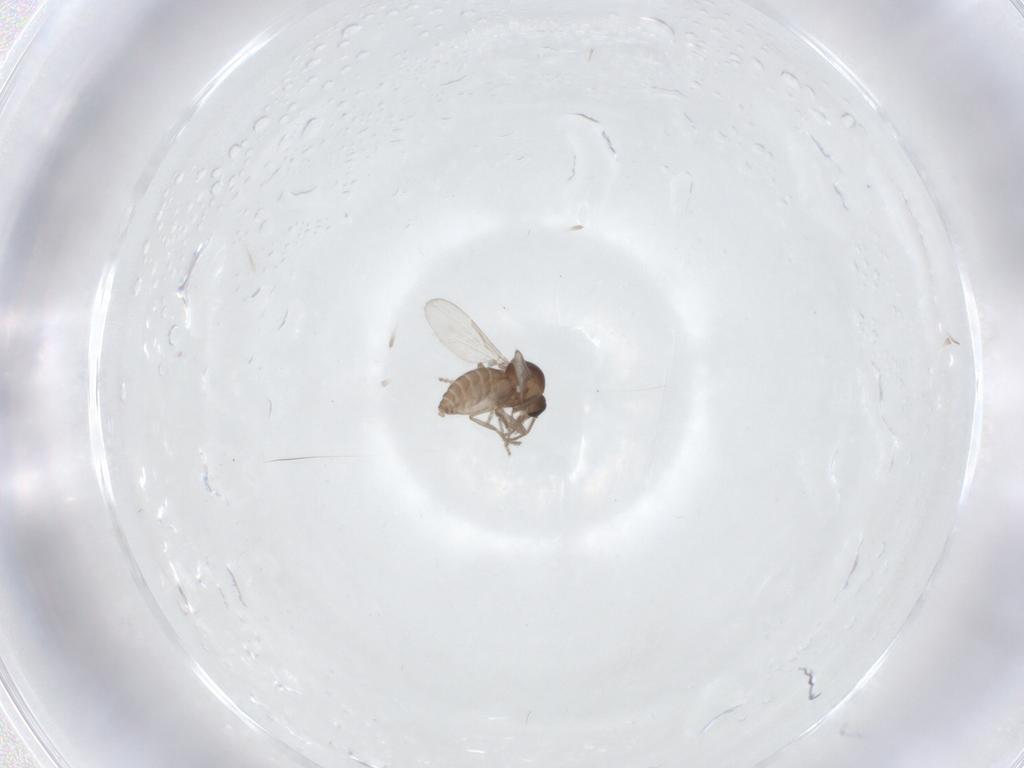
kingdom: Animalia
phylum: Arthropoda
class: Insecta
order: Diptera
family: Ceratopogonidae
